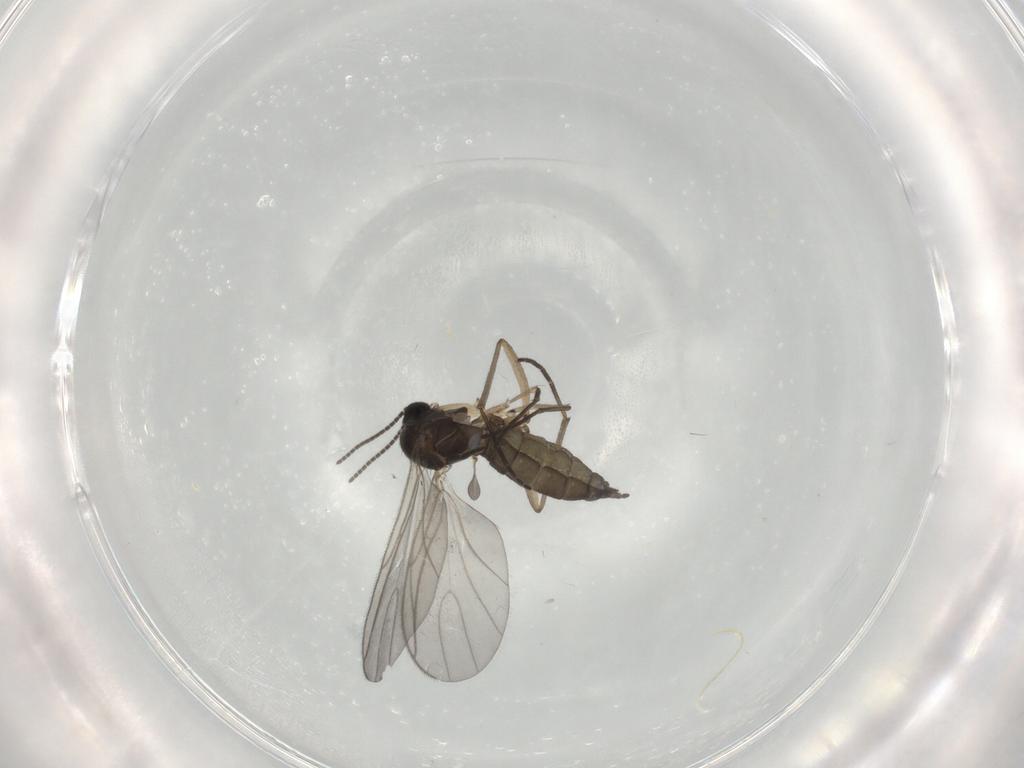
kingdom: Animalia
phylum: Arthropoda
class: Insecta
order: Diptera
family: Sciaridae
